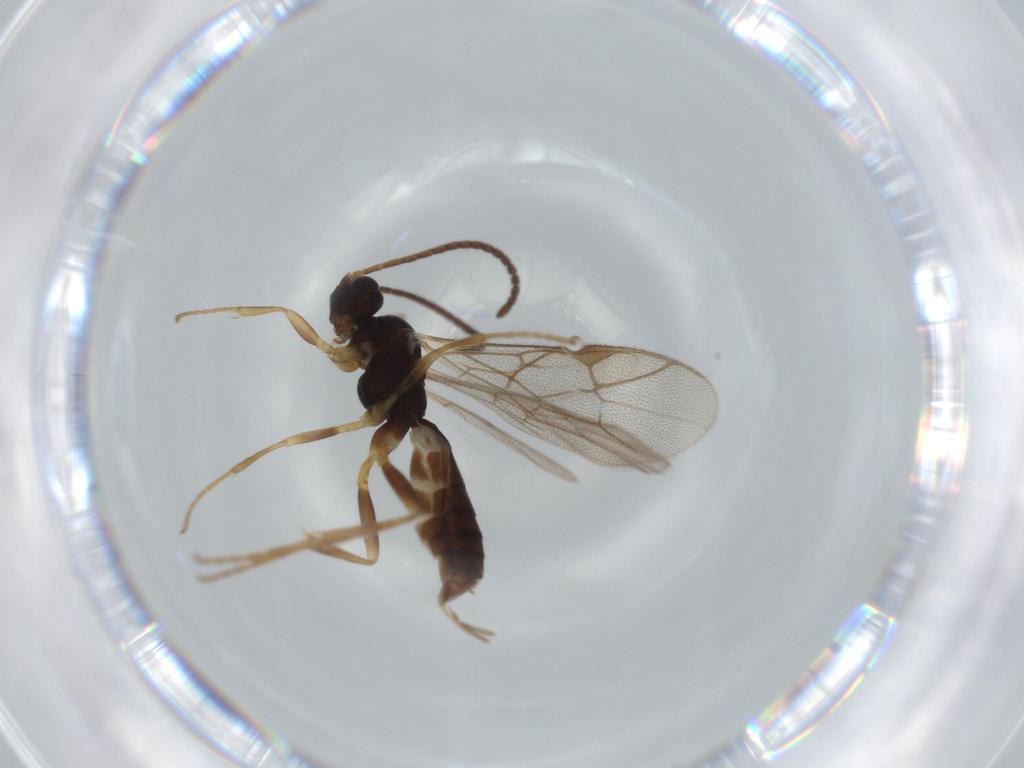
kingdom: Animalia
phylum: Arthropoda
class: Insecta
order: Hymenoptera
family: Ichneumonidae
